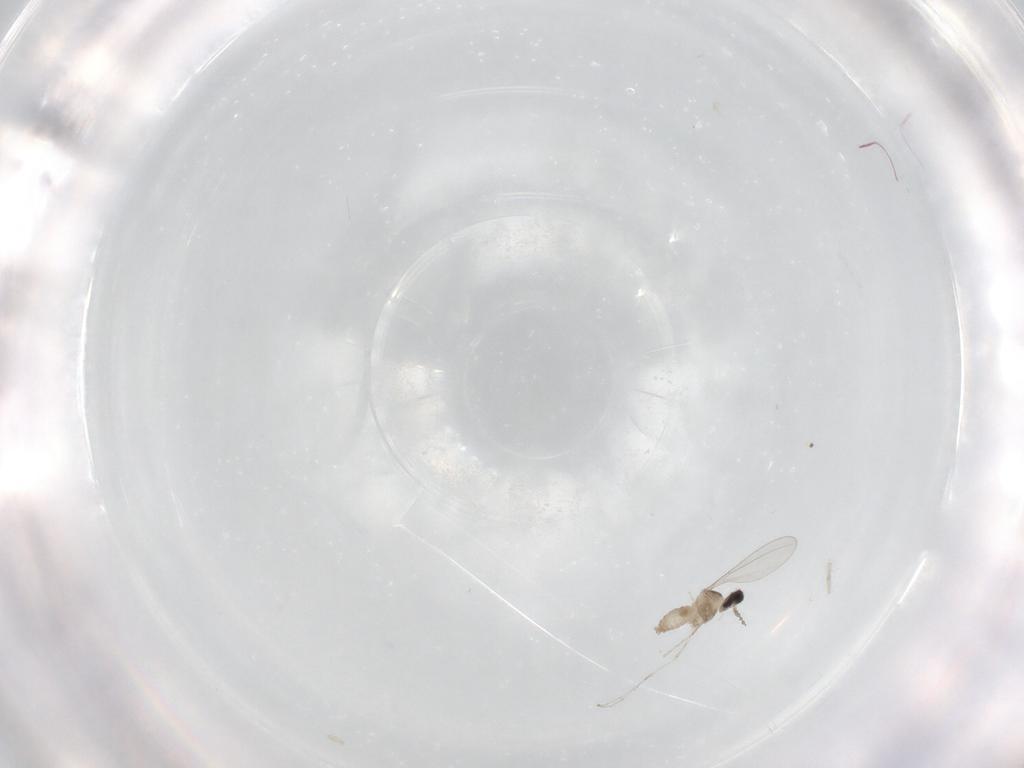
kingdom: Animalia
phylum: Arthropoda
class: Insecta
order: Diptera
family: Cecidomyiidae
